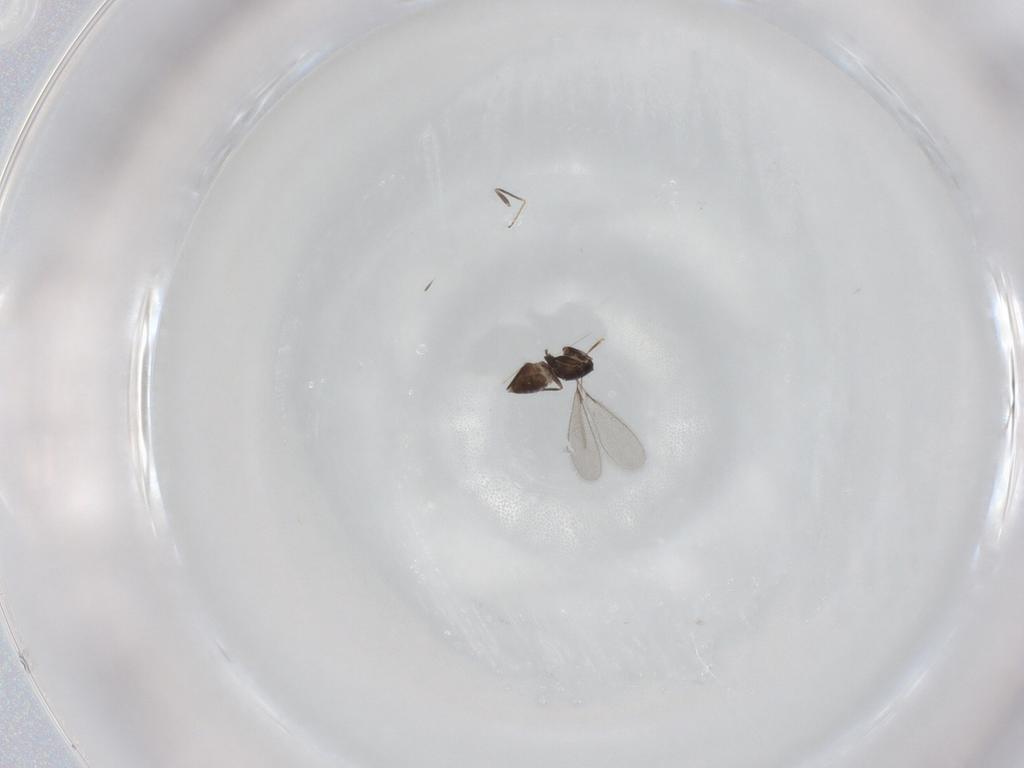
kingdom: Animalia
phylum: Arthropoda
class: Insecta
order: Hymenoptera
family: Mymaridae
